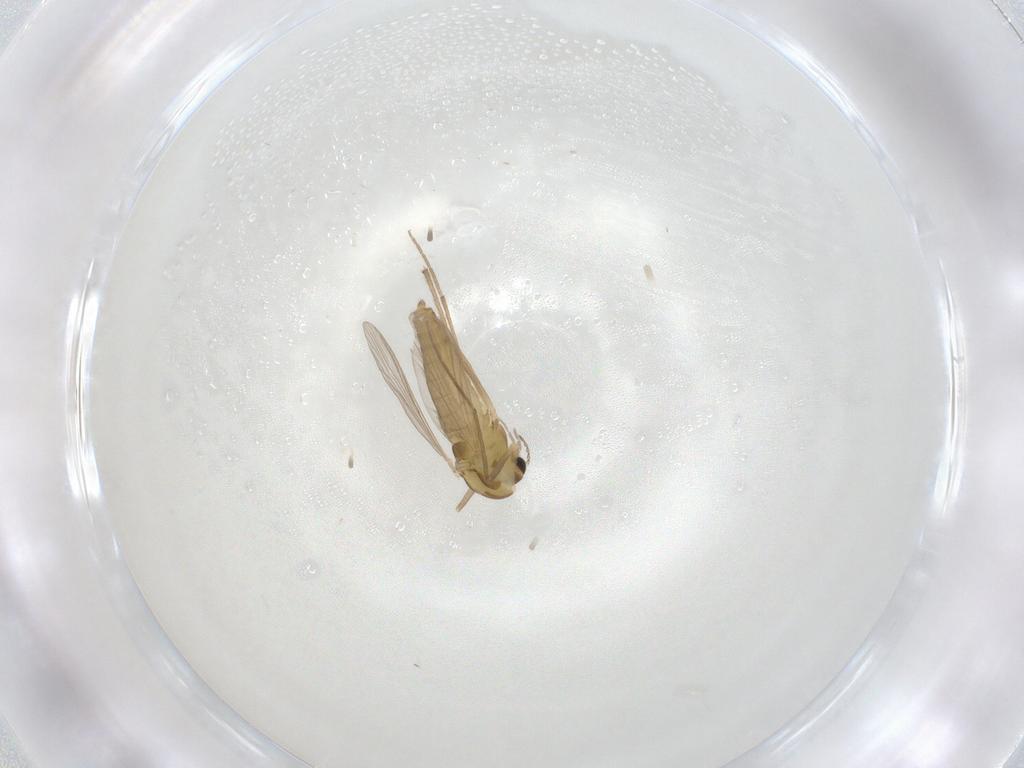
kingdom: Animalia
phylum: Arthropoda
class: Insecta
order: Diptera
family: Chironomidae
